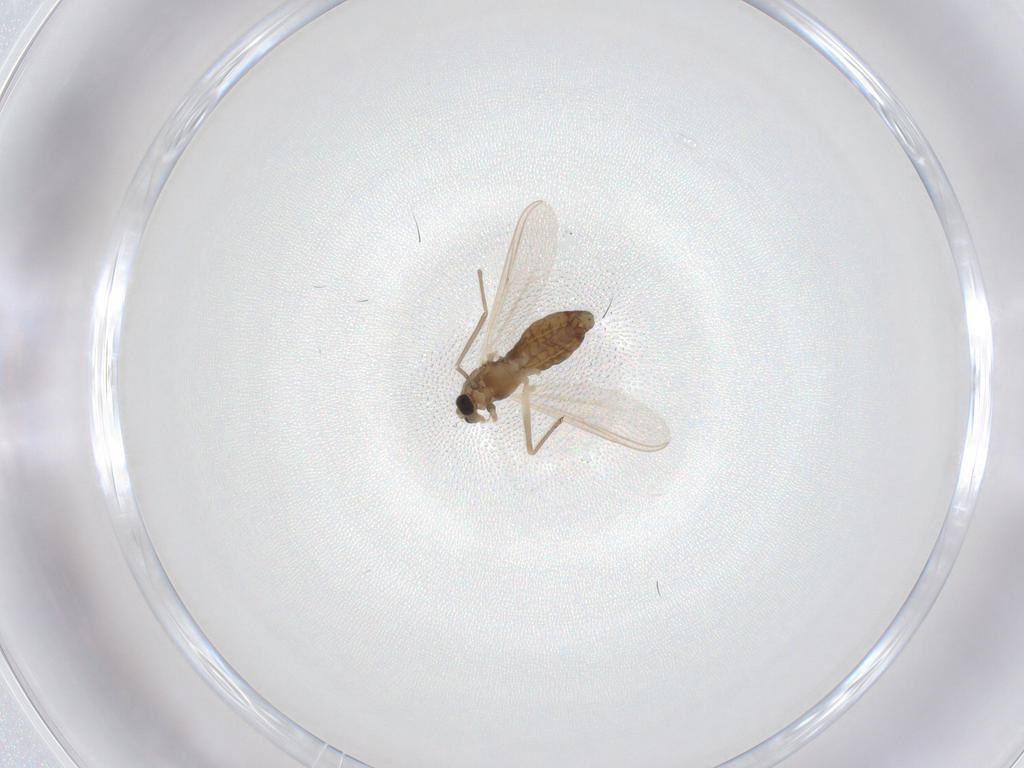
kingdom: Animalia
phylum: Arthropoda
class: Insecta
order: Diptera
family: Chironomidae
